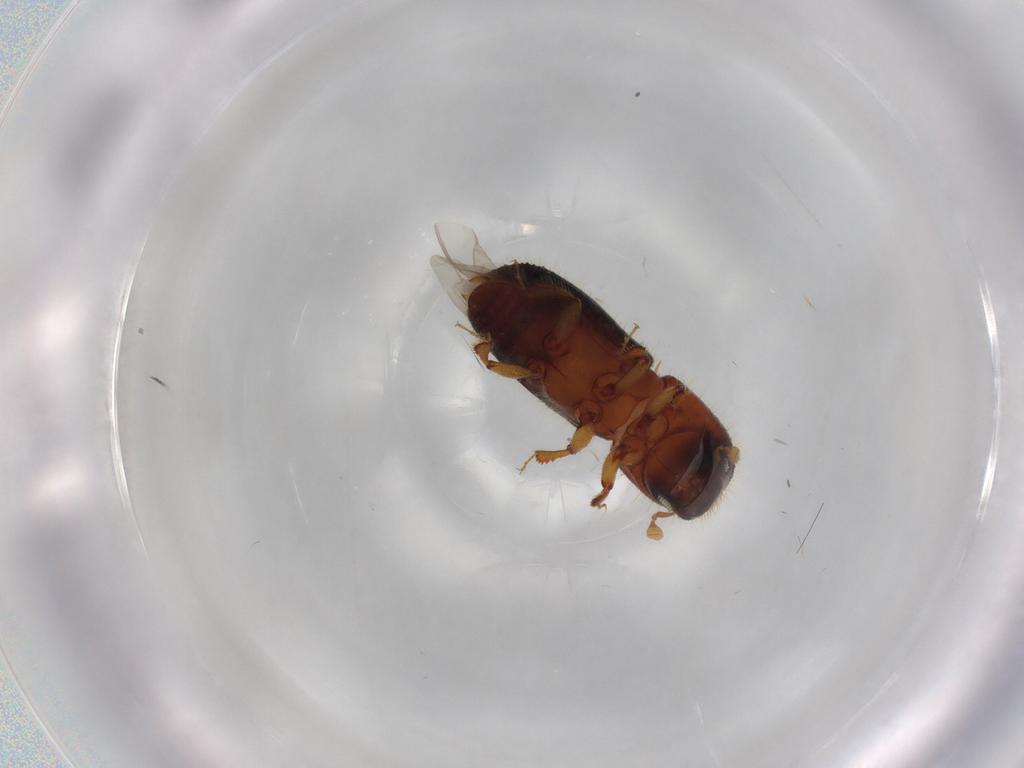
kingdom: Animalia
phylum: Arthropoda
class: Insecta
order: Coleoptera
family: Curculionidae
